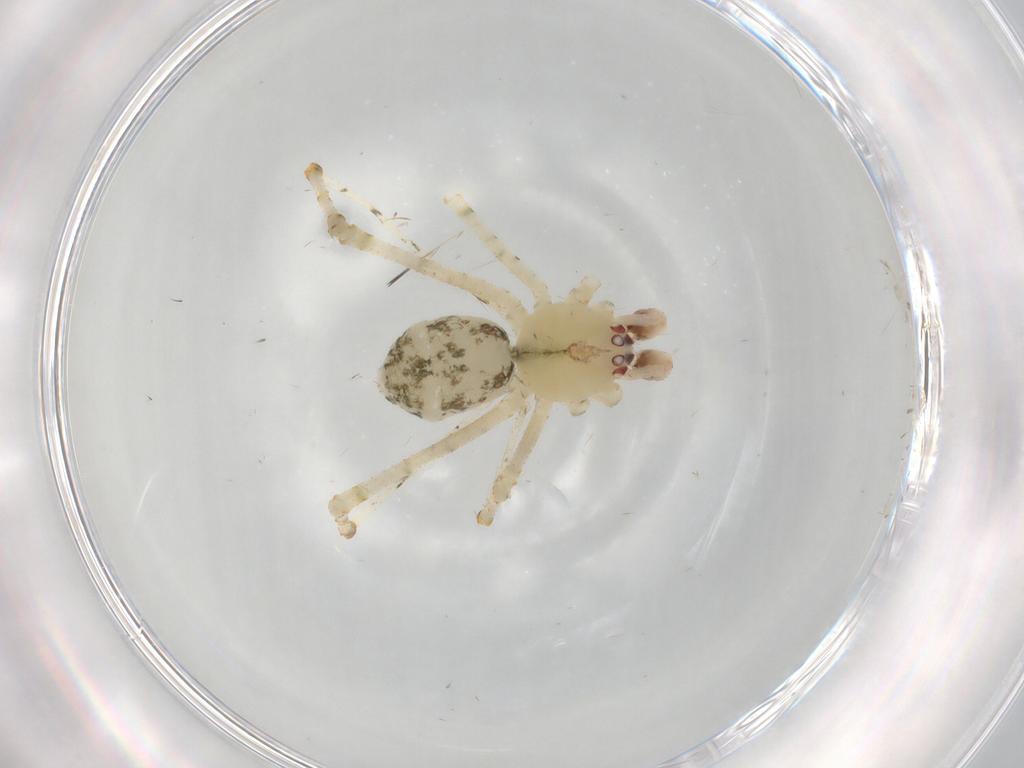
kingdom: Animalia
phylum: Arthropoda
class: Arachnida
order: Araneae
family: Theridiidae
